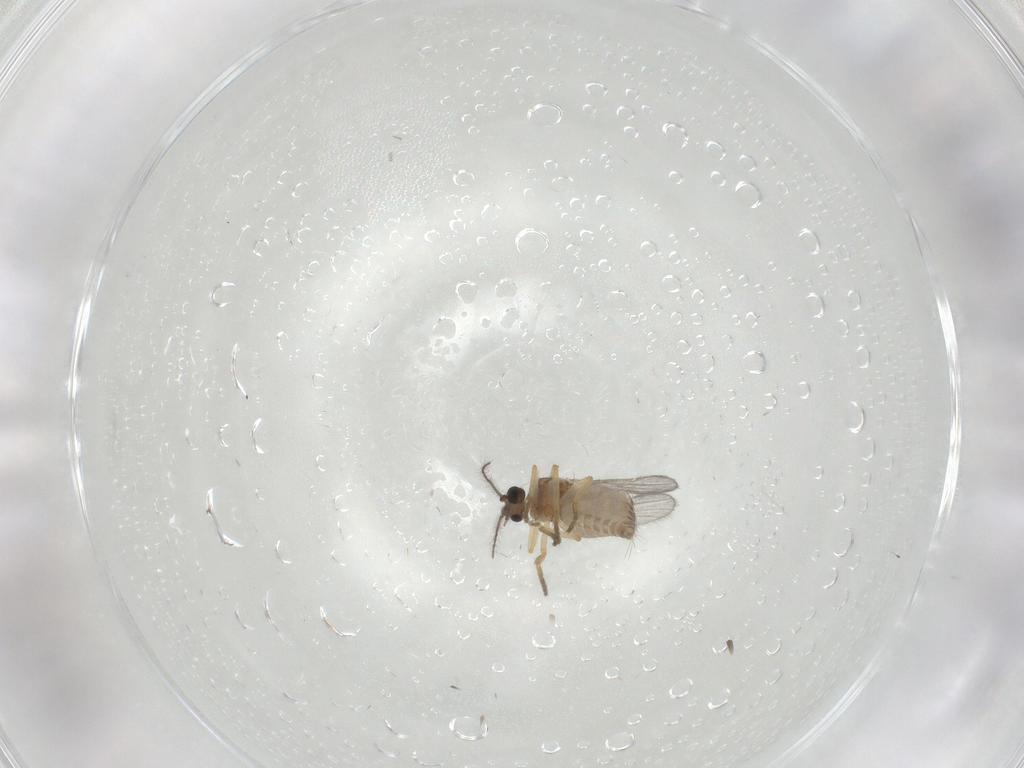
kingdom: Animalia
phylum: Arthropoda
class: Insecta
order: Diptera
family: Ceratopogonidae
